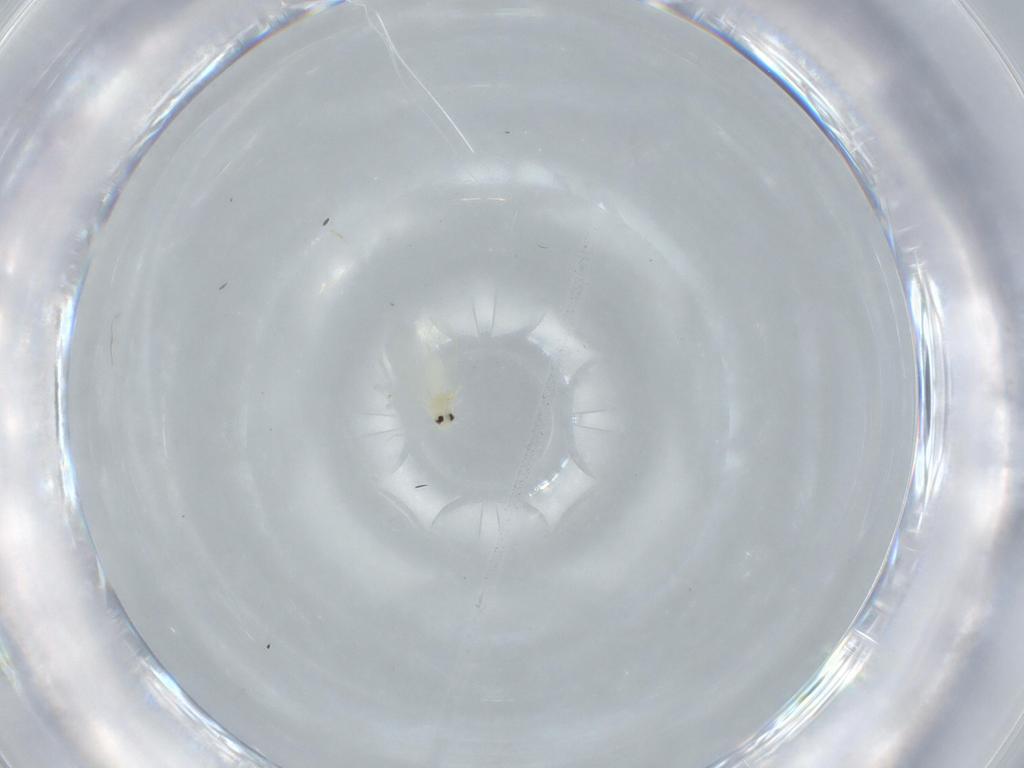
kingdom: Animalia
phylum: Arthropoda
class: Insecta
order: Hemiptera
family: Aleyrodidae
